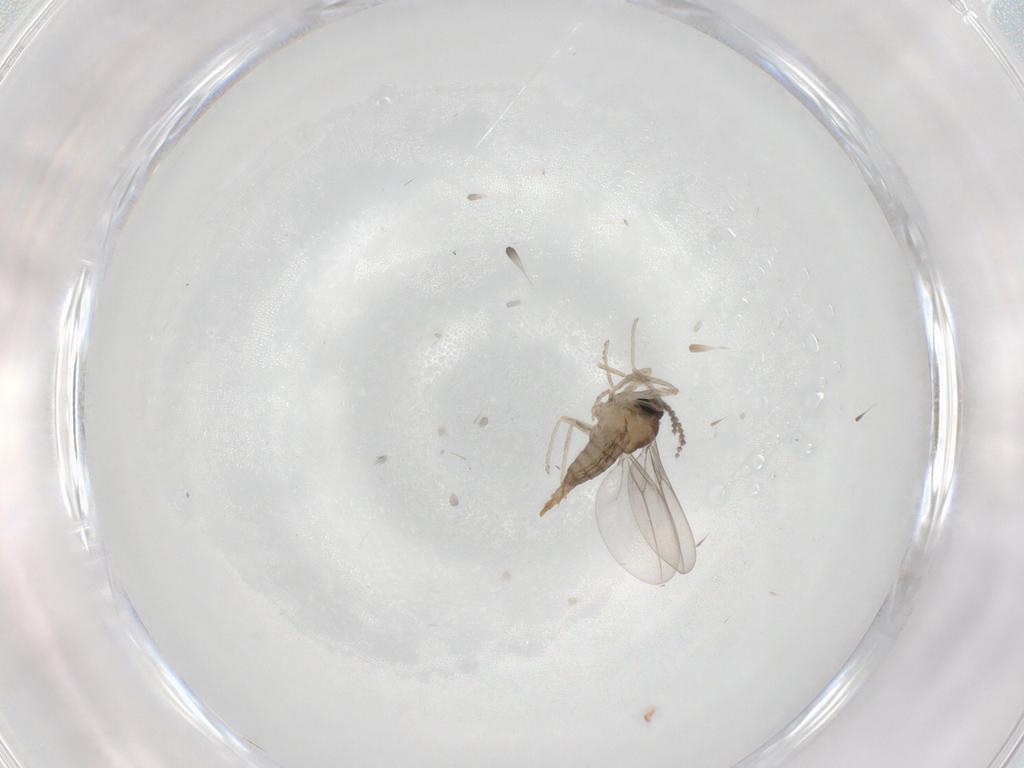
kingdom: Animalia
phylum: Arthropoda
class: Insecta
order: Diptera
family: Cecidomyiidae
